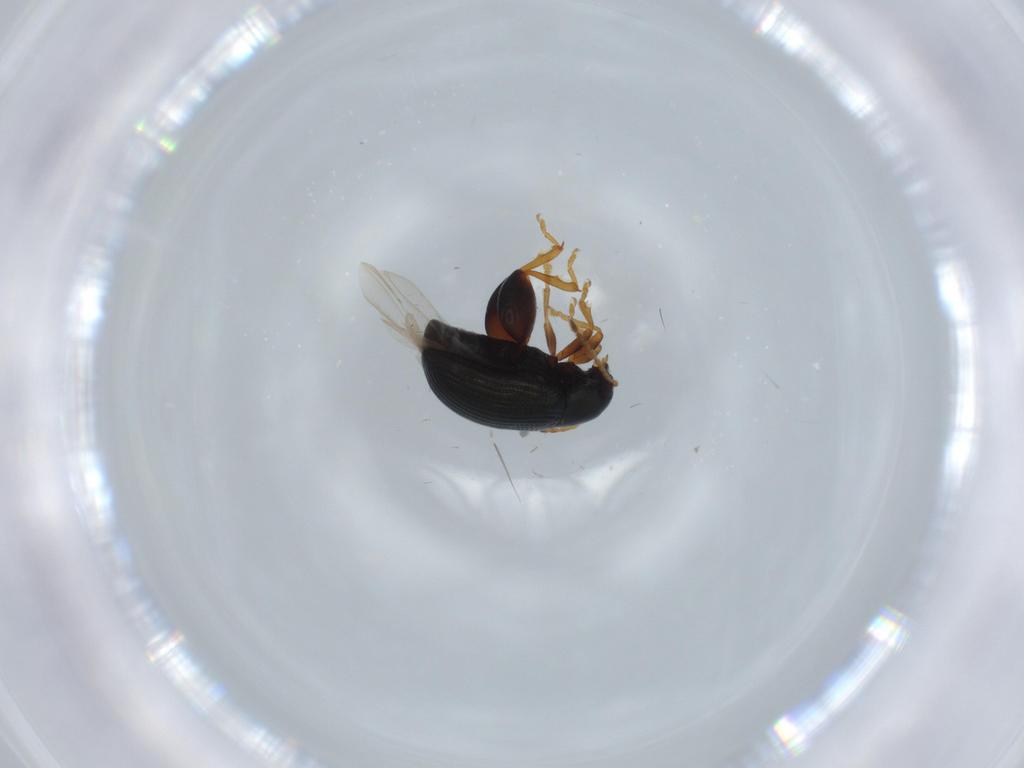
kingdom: Animalia
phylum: Arthropoda
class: Insecta
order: Coleoptera
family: Chrysomelidae
